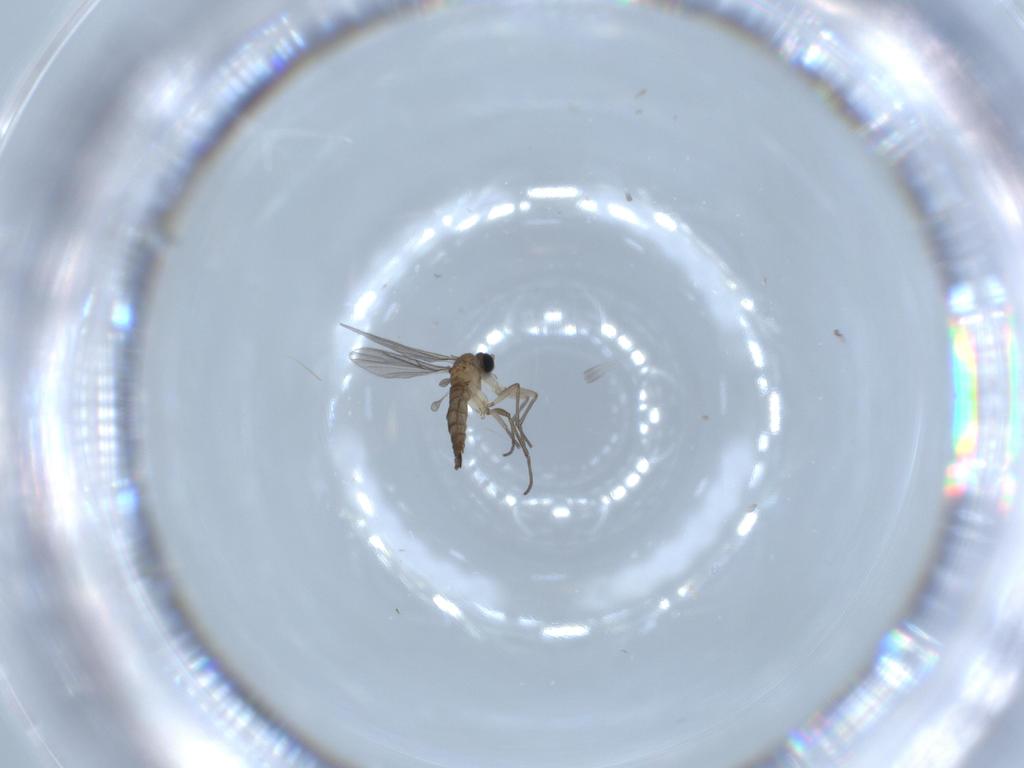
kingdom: Animalia
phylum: Arthropoda
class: Insecta
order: Diptera
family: Sciaridae
